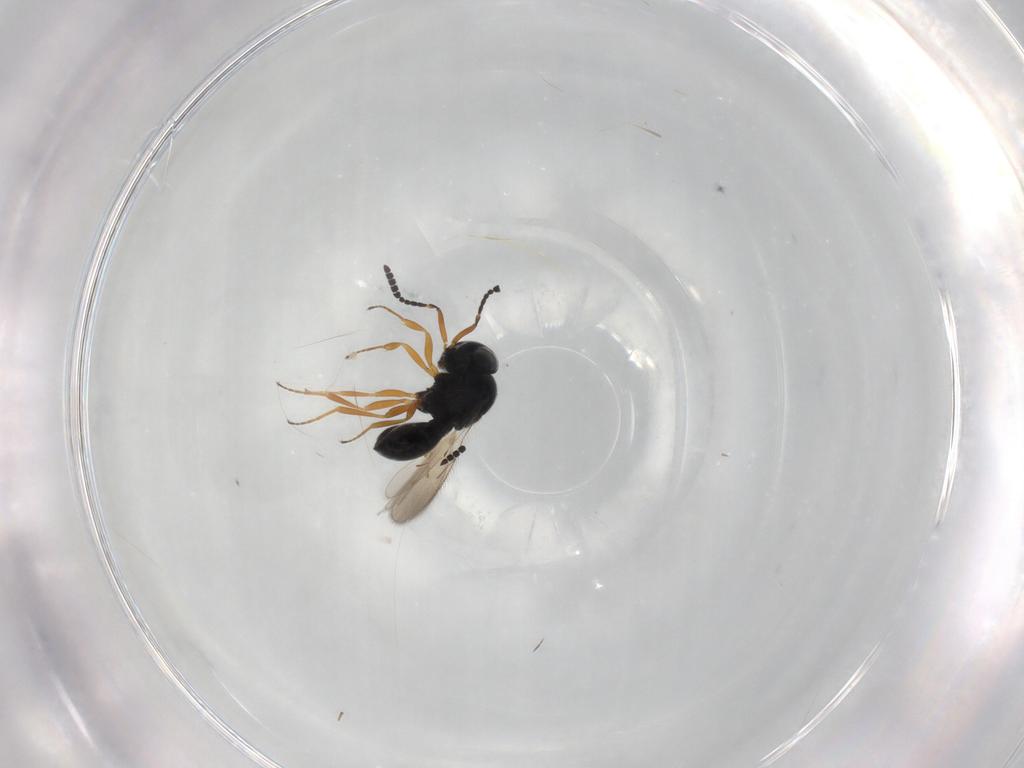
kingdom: Animalia
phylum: Arthropoda
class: Insecta
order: Hymenoptera
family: Scelionidae
